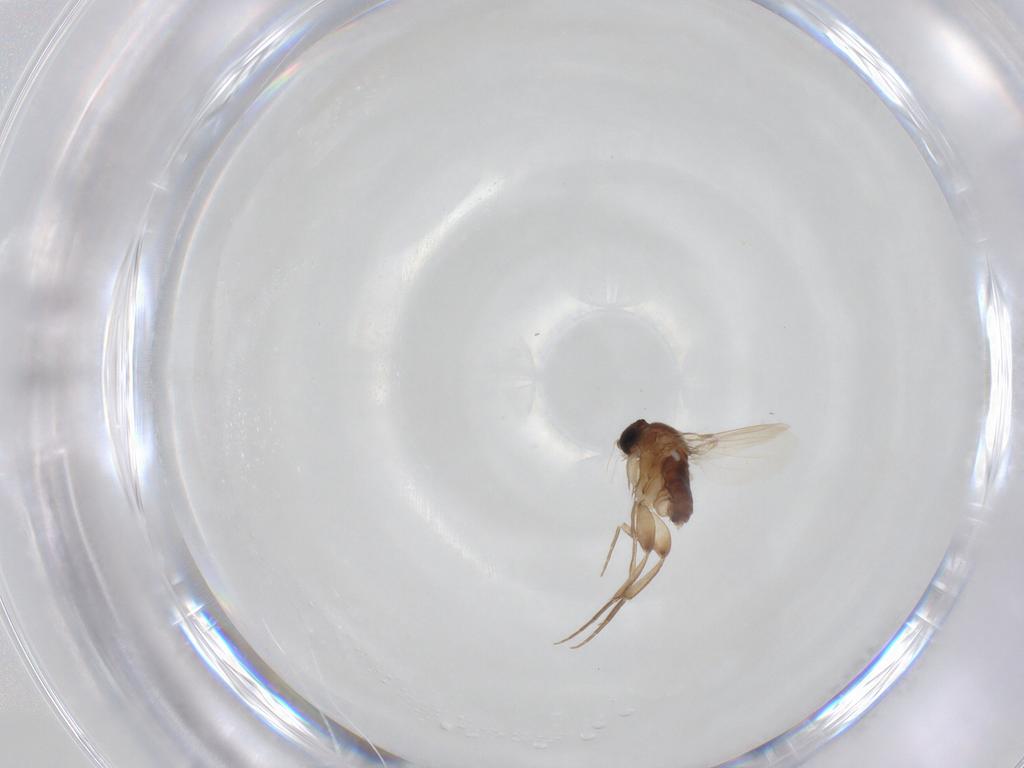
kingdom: Animalia
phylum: Arthropoda
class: Insecta
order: Diptera
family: Phoridae
